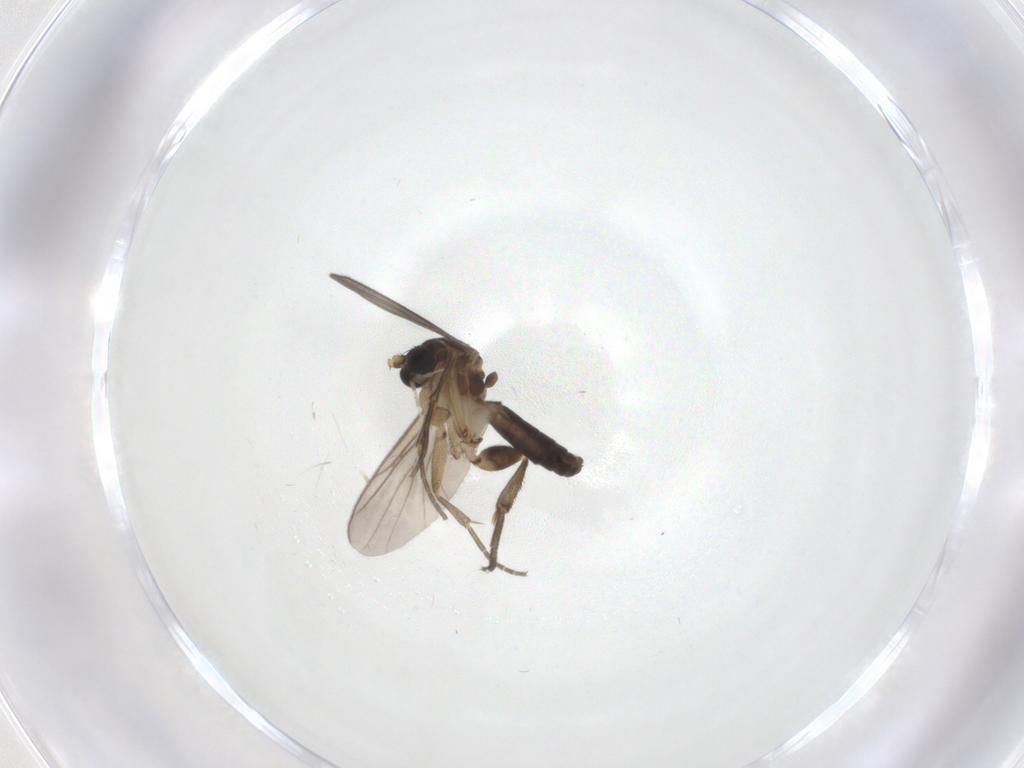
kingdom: Animalia
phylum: Arthropoda
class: Insecta
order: Diptera
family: Mycetophilidae
